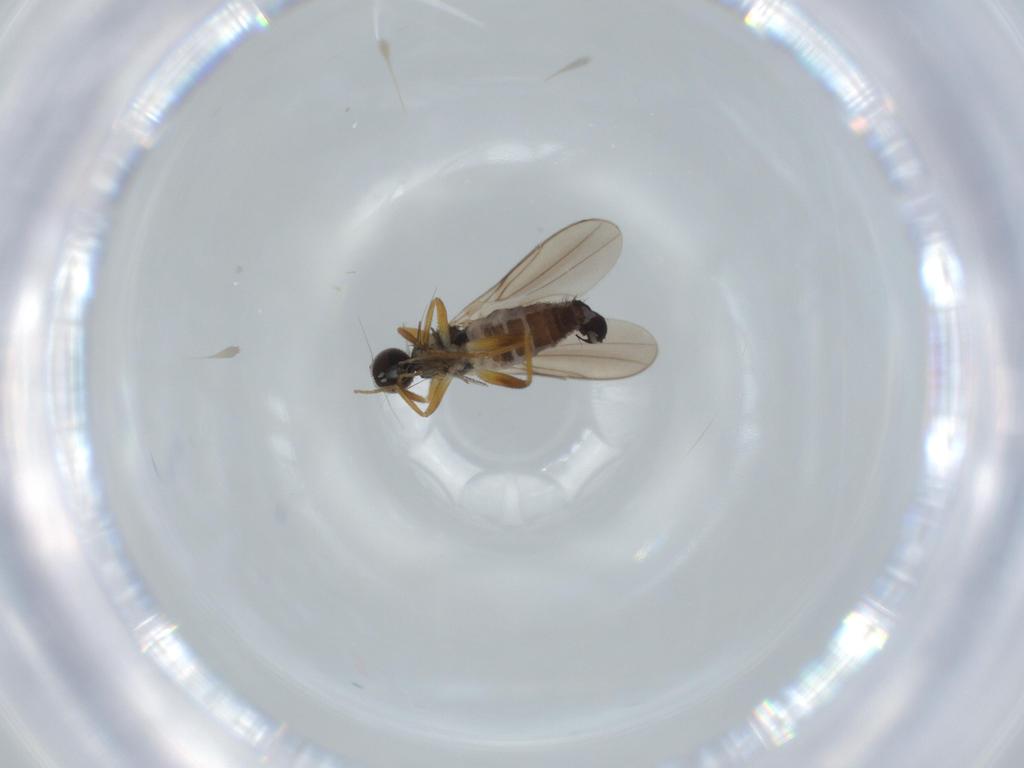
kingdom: Animalia
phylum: Arthropoda
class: Insecta
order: Diptera
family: Hybotidae
